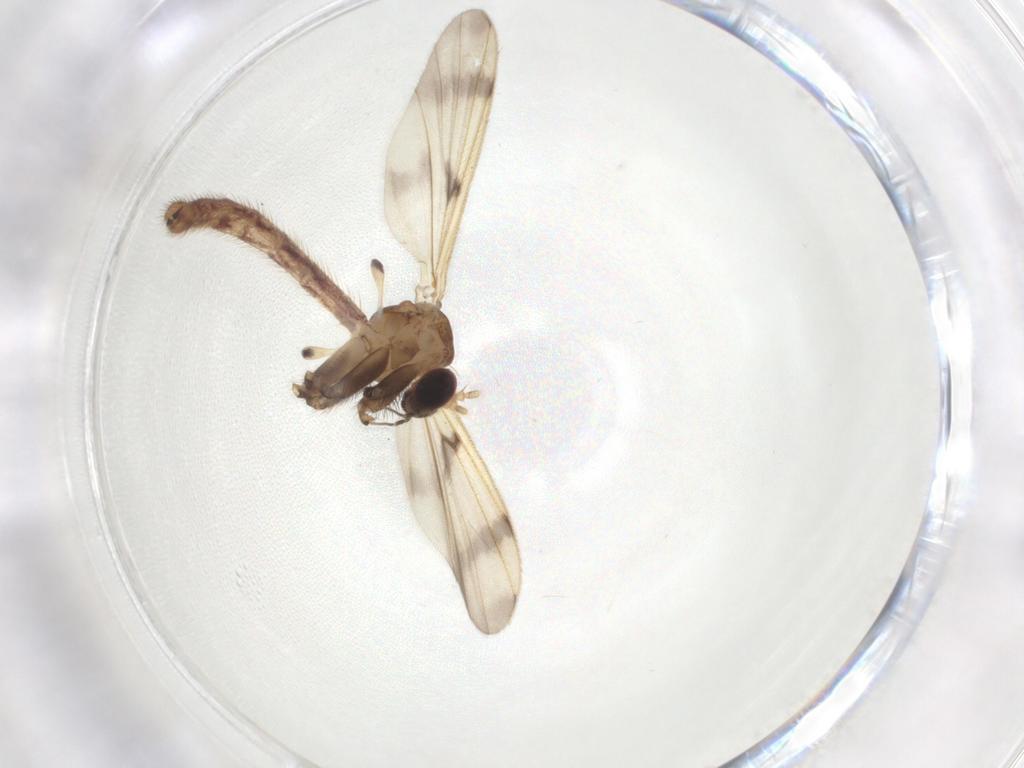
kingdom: Animalia
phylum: Arthropoda
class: Insecta
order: Diptera
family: Mycetophilidae
